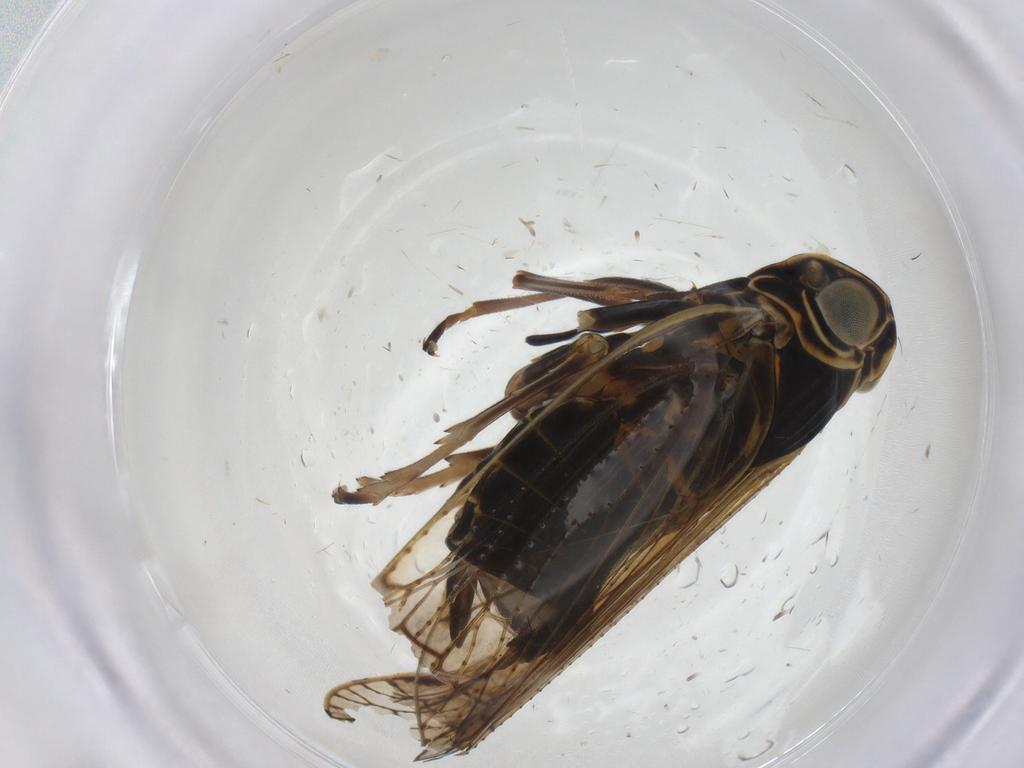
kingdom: Animalia
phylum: Arthropoda
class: Insecta
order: Hemiptera
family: Cixiidae
